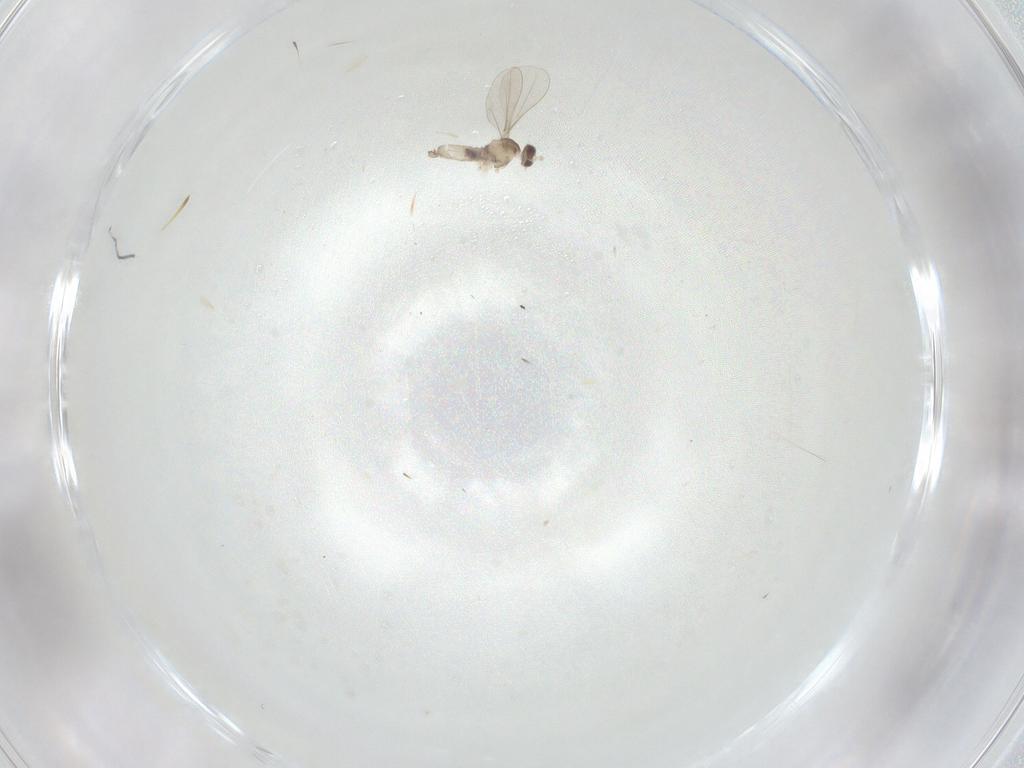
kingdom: Animalia
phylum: Arthropoda
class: Insecta
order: Diptera
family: Cecidomyiidae
